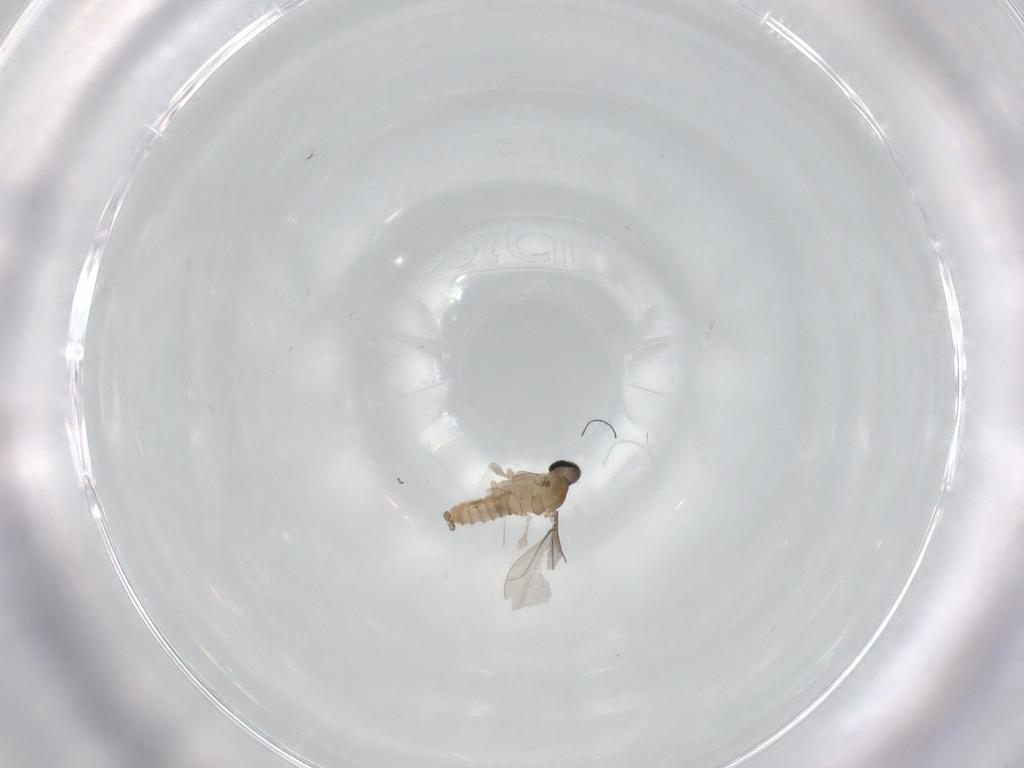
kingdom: Animalia
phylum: Arthropoda
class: Insecta
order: Diptera
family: Cecidomyiidae
